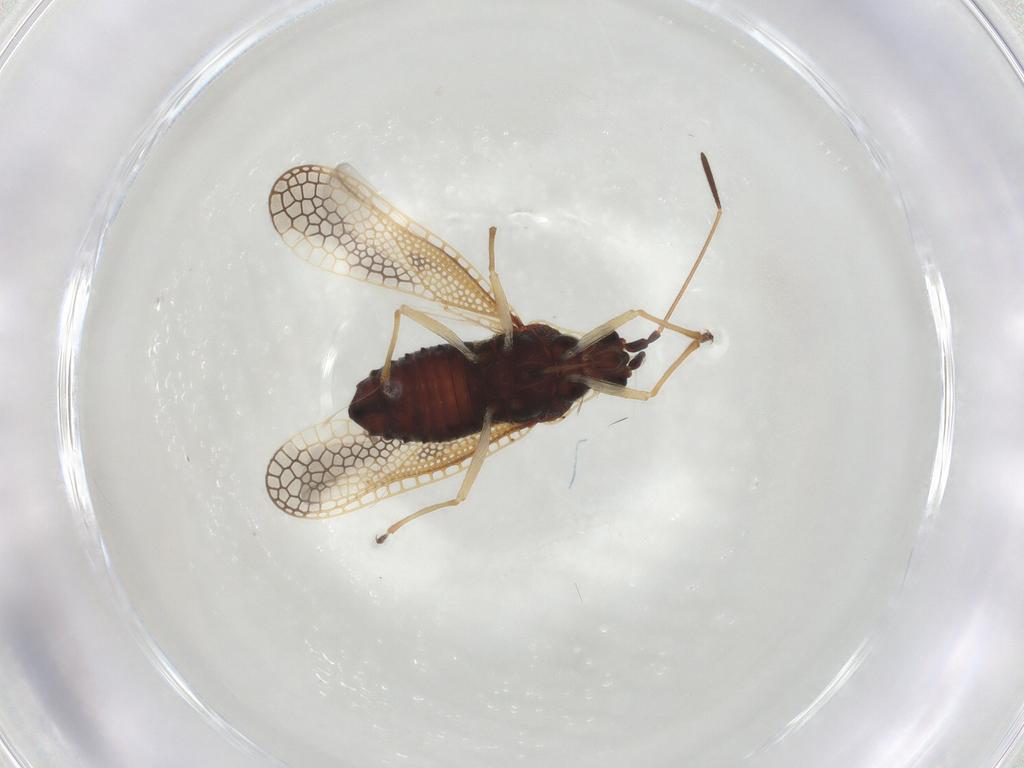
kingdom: Animalia
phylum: Arthropoda
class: Insecta
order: Hemiptera
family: Tingidae
